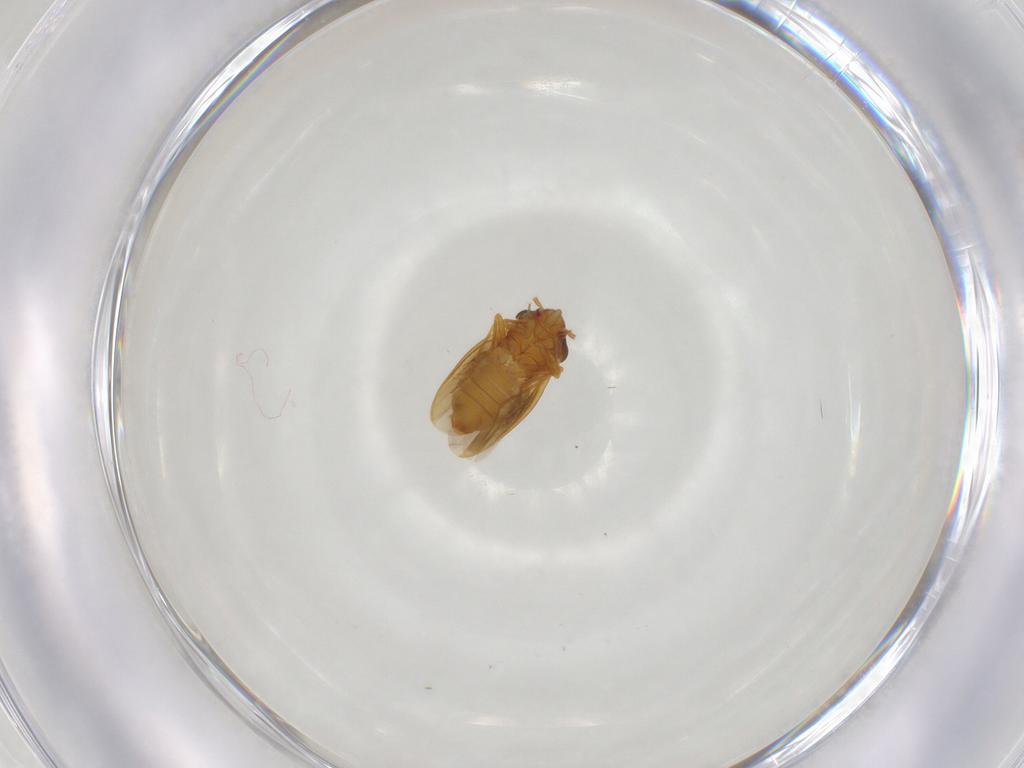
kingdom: Animalia
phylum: Arthropoda
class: Insecta
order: Hemiptera
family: Schizopteridae
